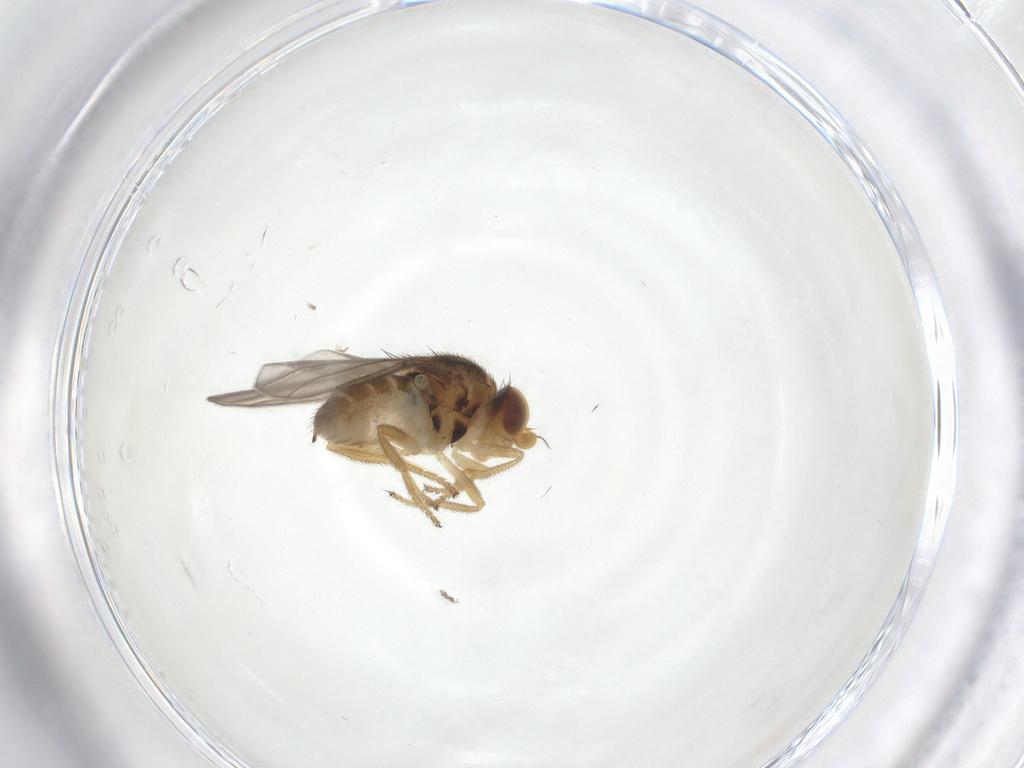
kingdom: Animalia
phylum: Arthropoda
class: Insecta
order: Diptera
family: Chloropidae
